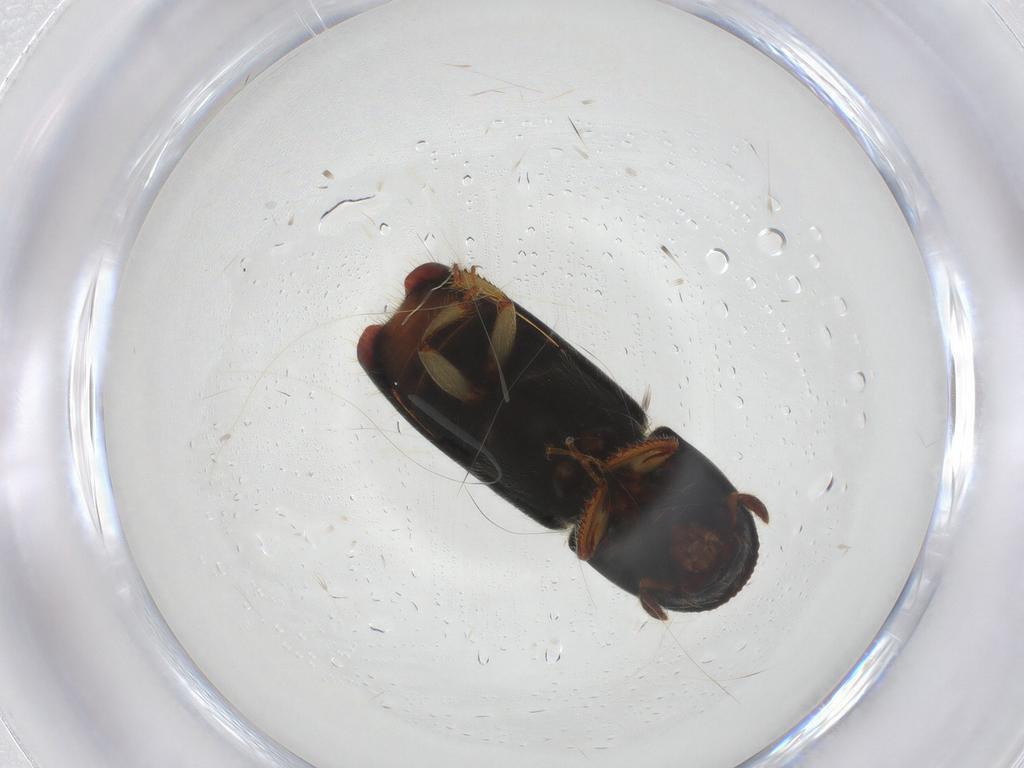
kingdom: Animalia
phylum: Arthropoda
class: Insecta
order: Coleoptera
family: Curculionidae
